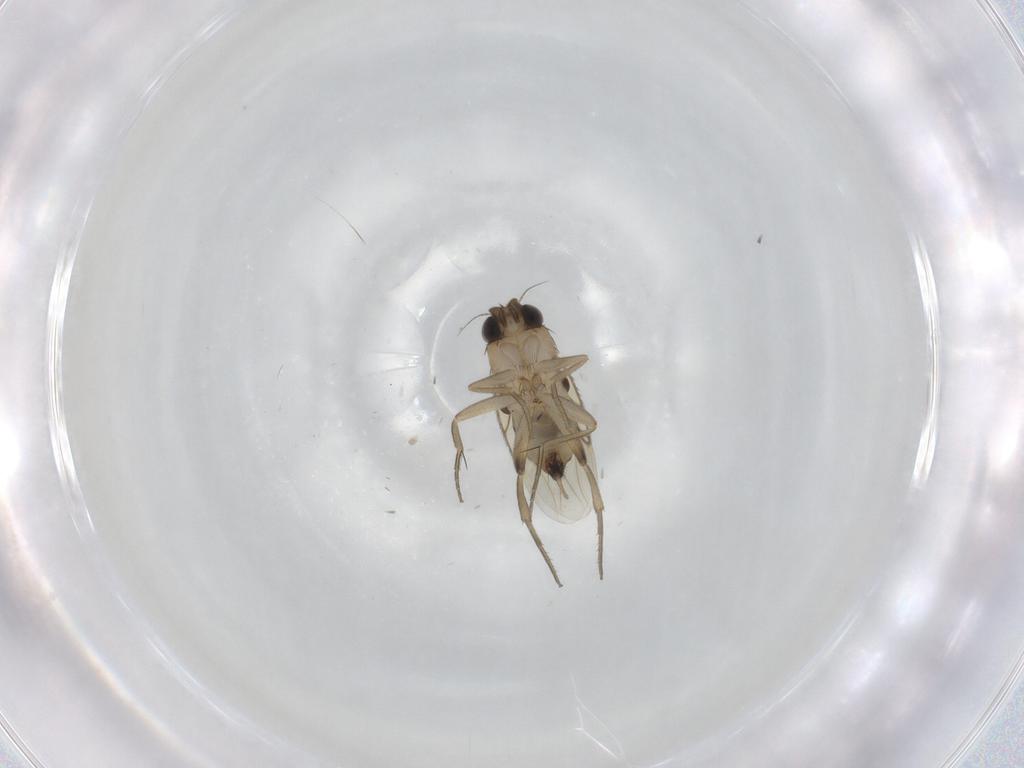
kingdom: Animalia
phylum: Arthropoda
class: Insecta
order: Diptera
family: Phoridae
